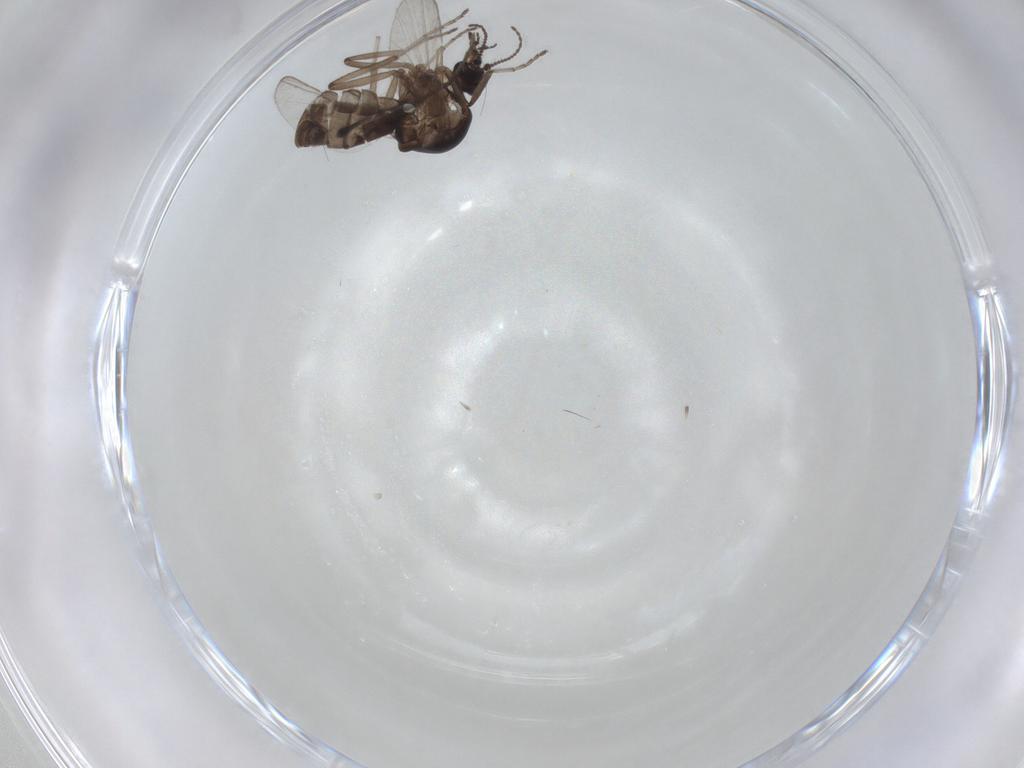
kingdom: Animalia
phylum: Arthropoda
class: Insecta
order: Diptera
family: Empididae
